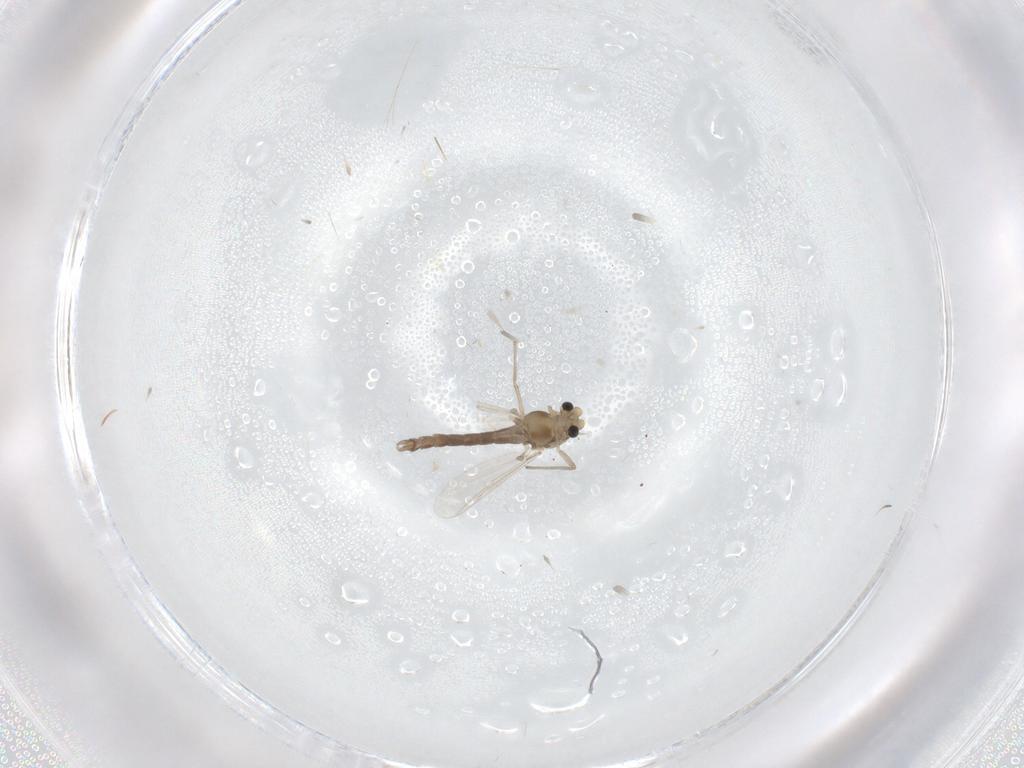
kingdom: Animalia
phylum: Arthropoda
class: Insecta
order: Diptera
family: Chironomidae
